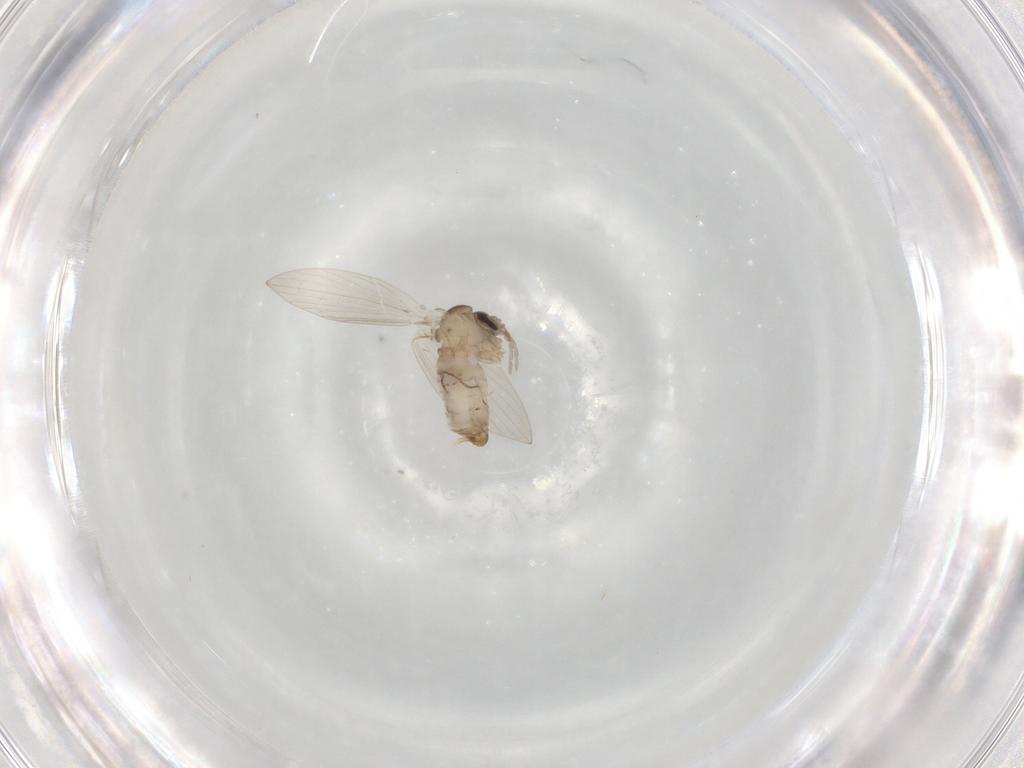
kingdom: Animalia
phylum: Arthropoda
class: Insecta
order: Diptera
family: Psychodidae
